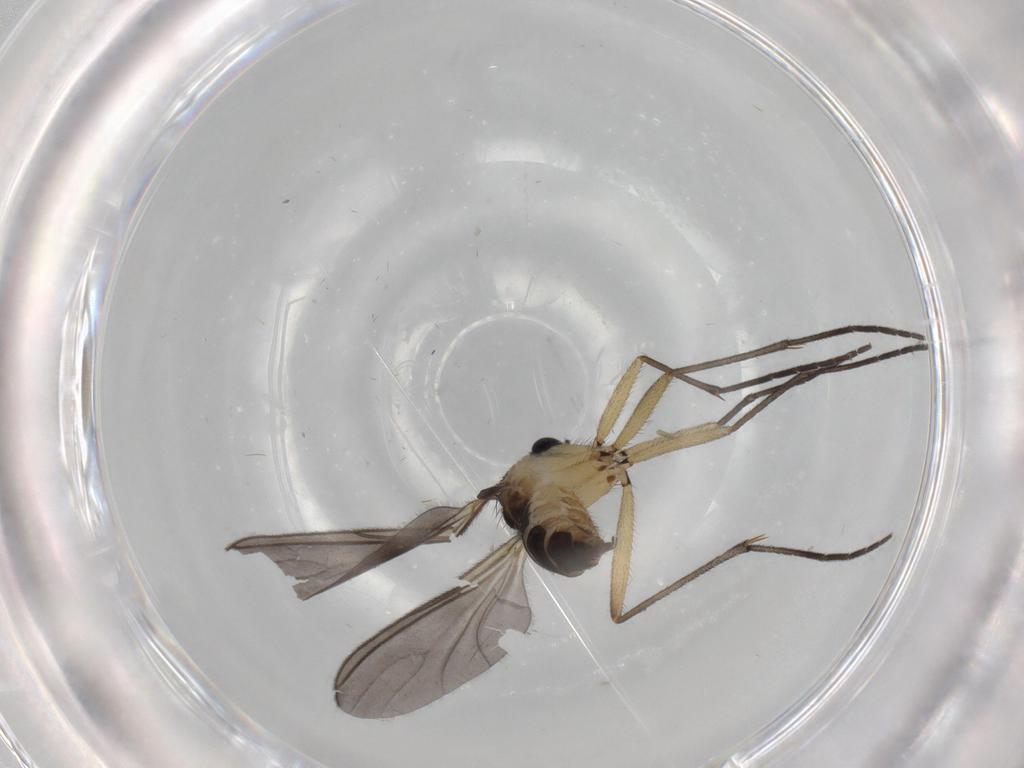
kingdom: Animalia
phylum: Arthropoda
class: Insecta
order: Diptera
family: Sciaridae
